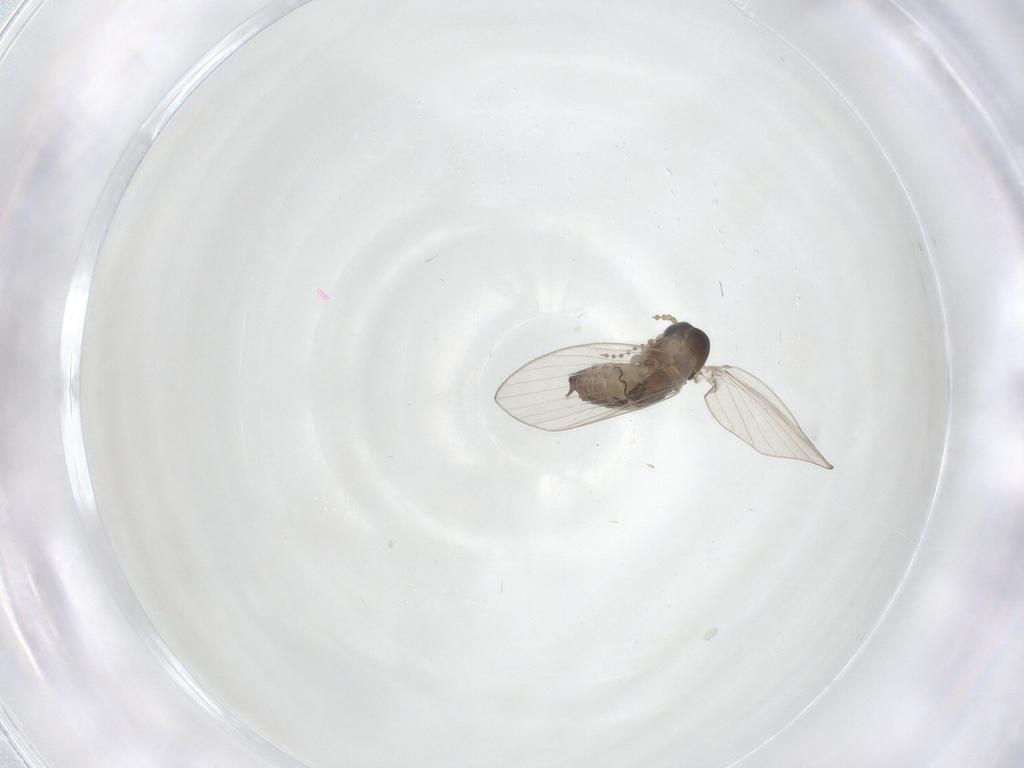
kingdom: Animalia
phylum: Arthropoda
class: Insecta
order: Diptera
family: Psychodidae
